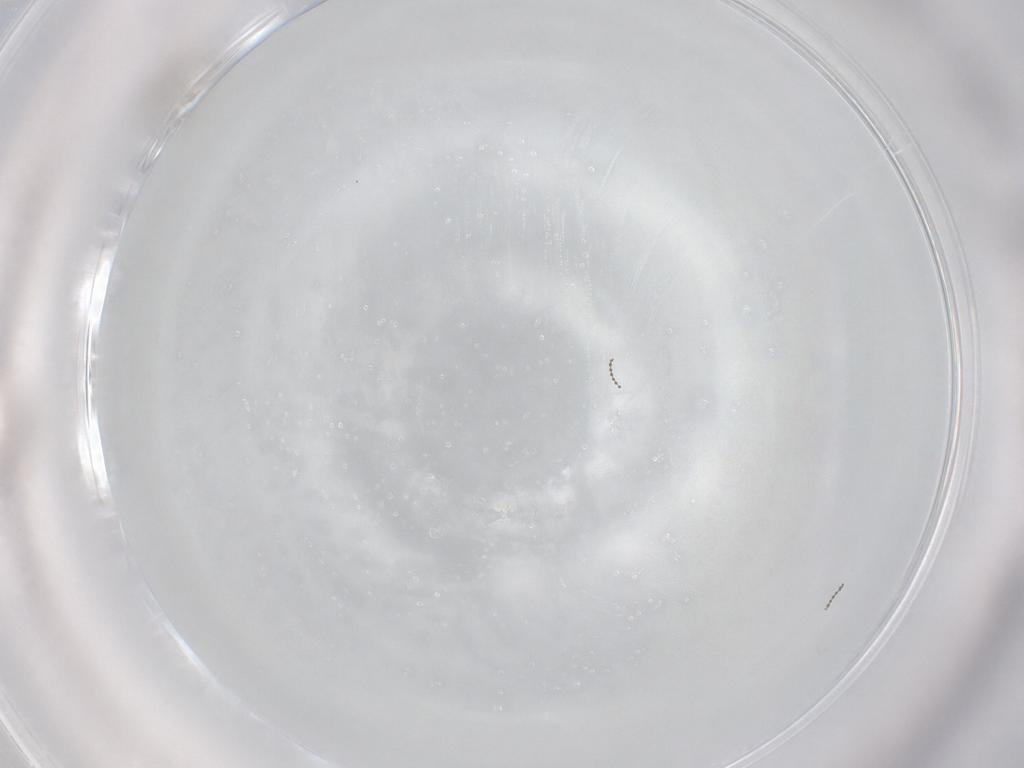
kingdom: Animalia
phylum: Arthropoda
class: Insecta
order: Diptera
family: Cecidomyiidae
